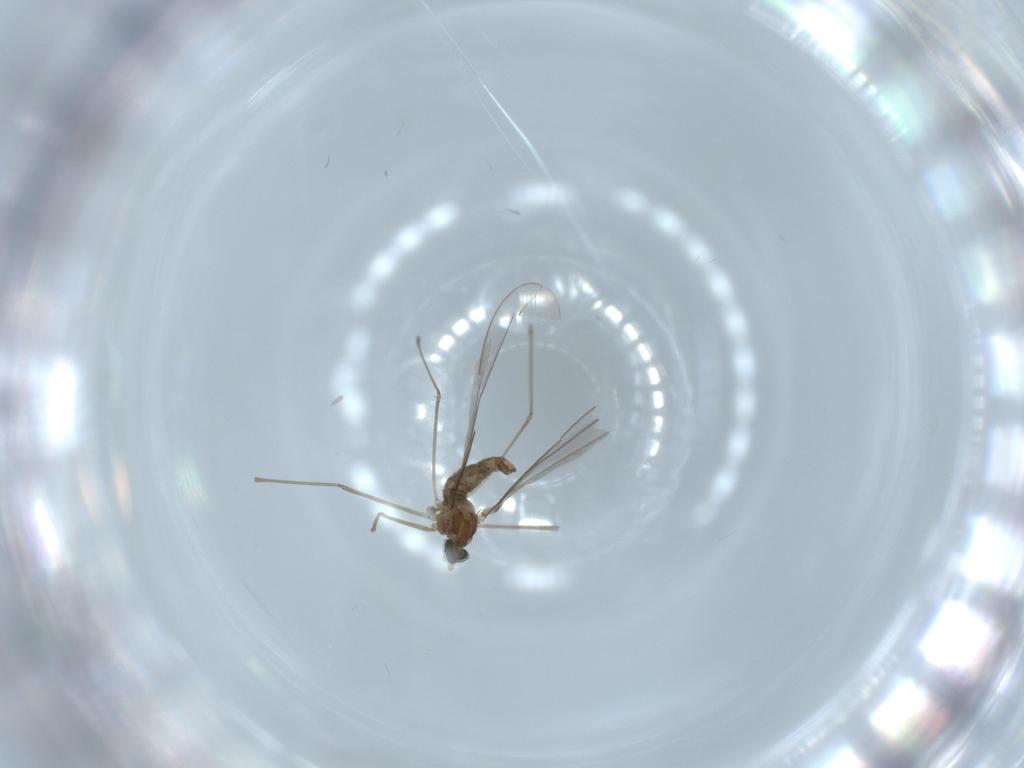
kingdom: Animalia
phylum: Arthropoda
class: Insecta
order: Diptera
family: Cecidomyiidae
